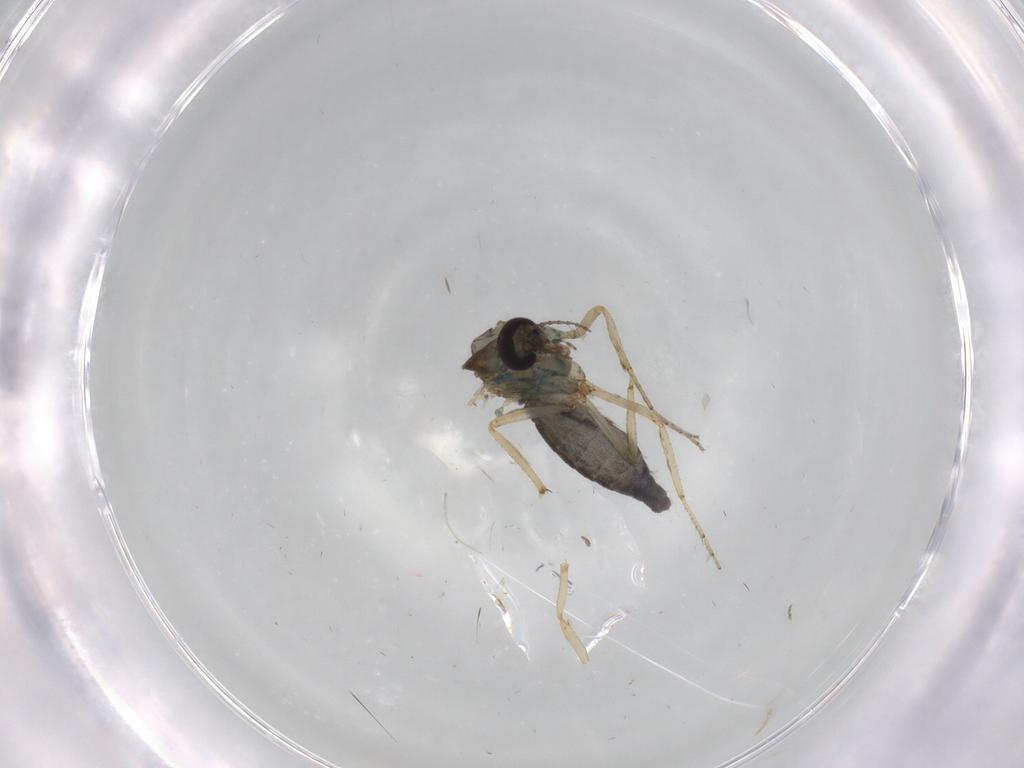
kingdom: Animalia
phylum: Arthropoda
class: Insecta
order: Diptera
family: Ceratopogonidae
